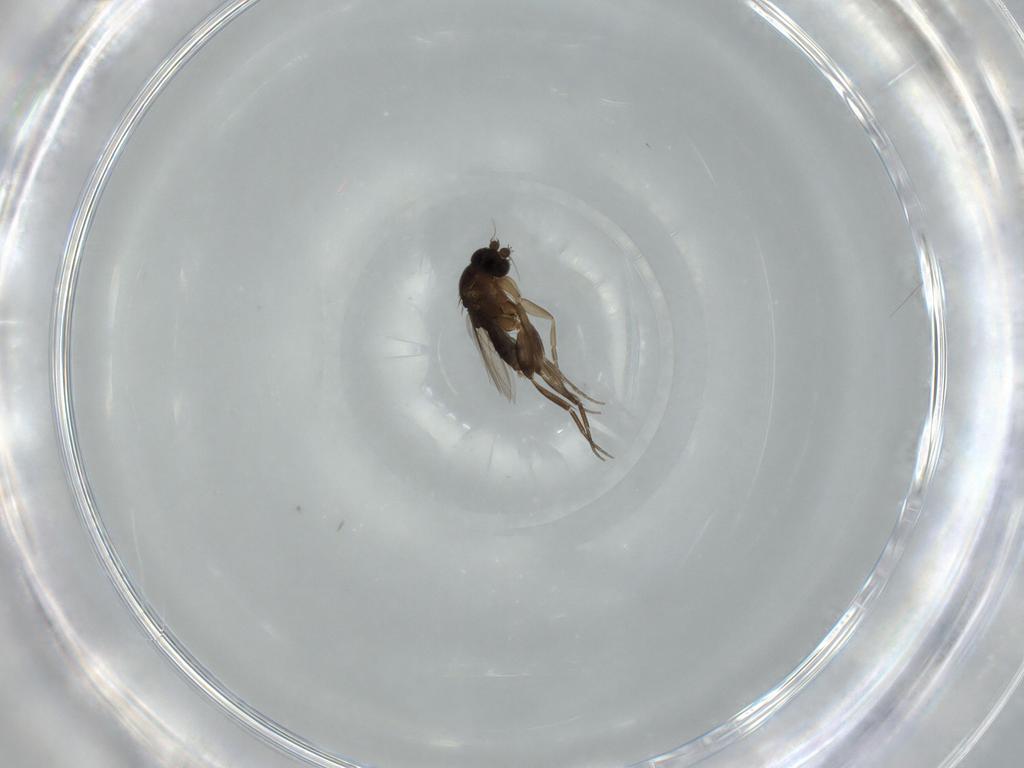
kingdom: Animalia
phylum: Arthropoda
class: Insecta
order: Diptera
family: Phoridae
